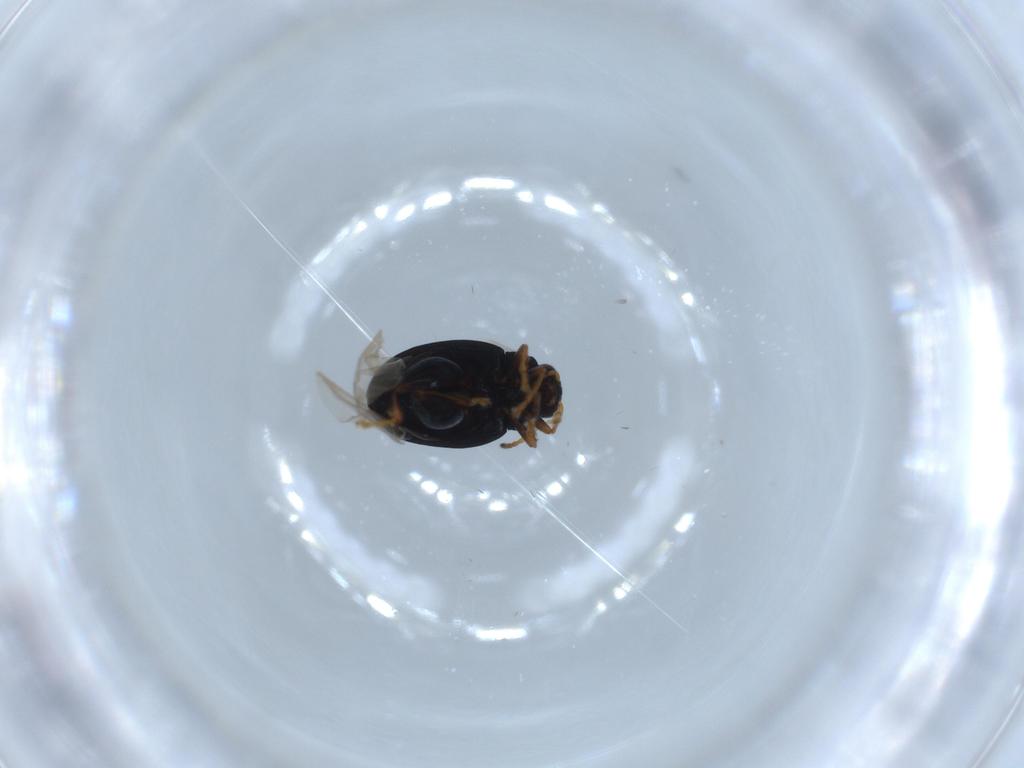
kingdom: Animalia
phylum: Arthropoda
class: Insecta
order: Coleoptera
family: Chrysomelidae
